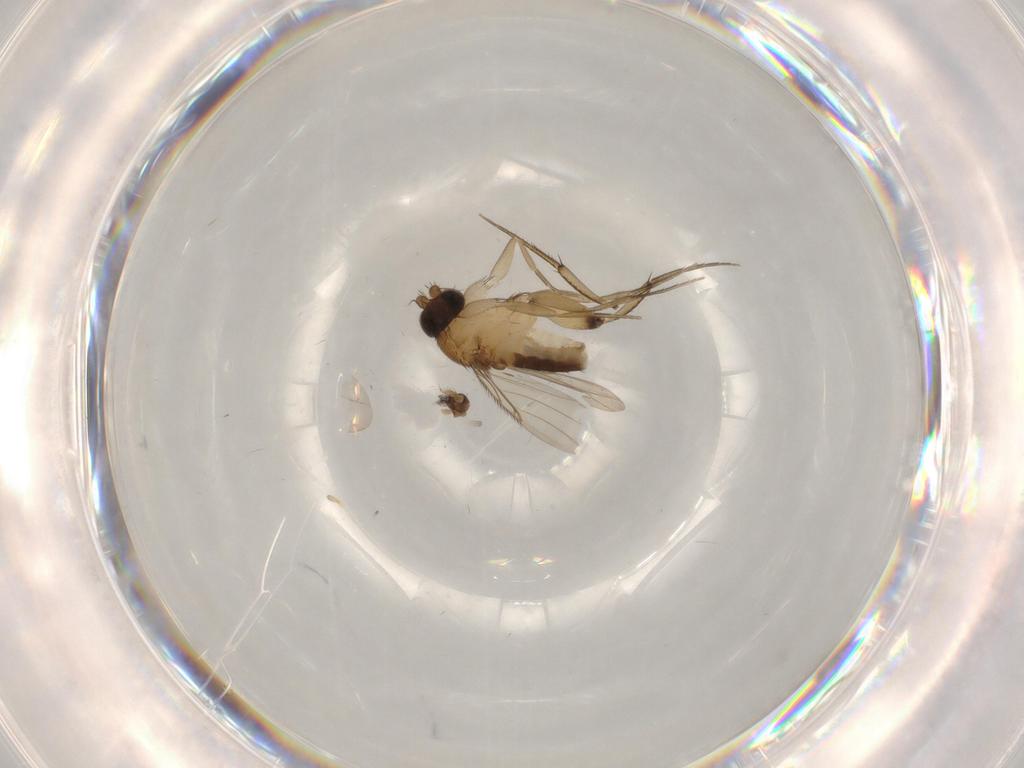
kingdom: Animalia
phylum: Arthropoda
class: Insecta
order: Diptera
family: Phoridae
